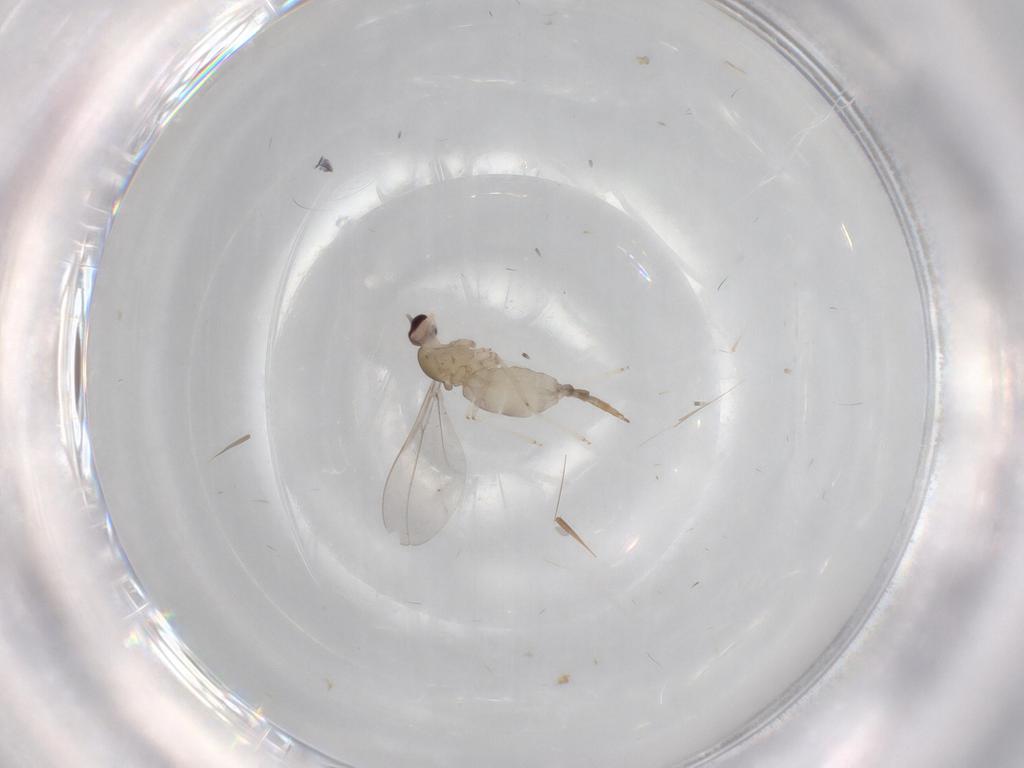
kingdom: Animalia
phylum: Arthropoda
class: Insecta
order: Diptera
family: Cecidomyiidae
